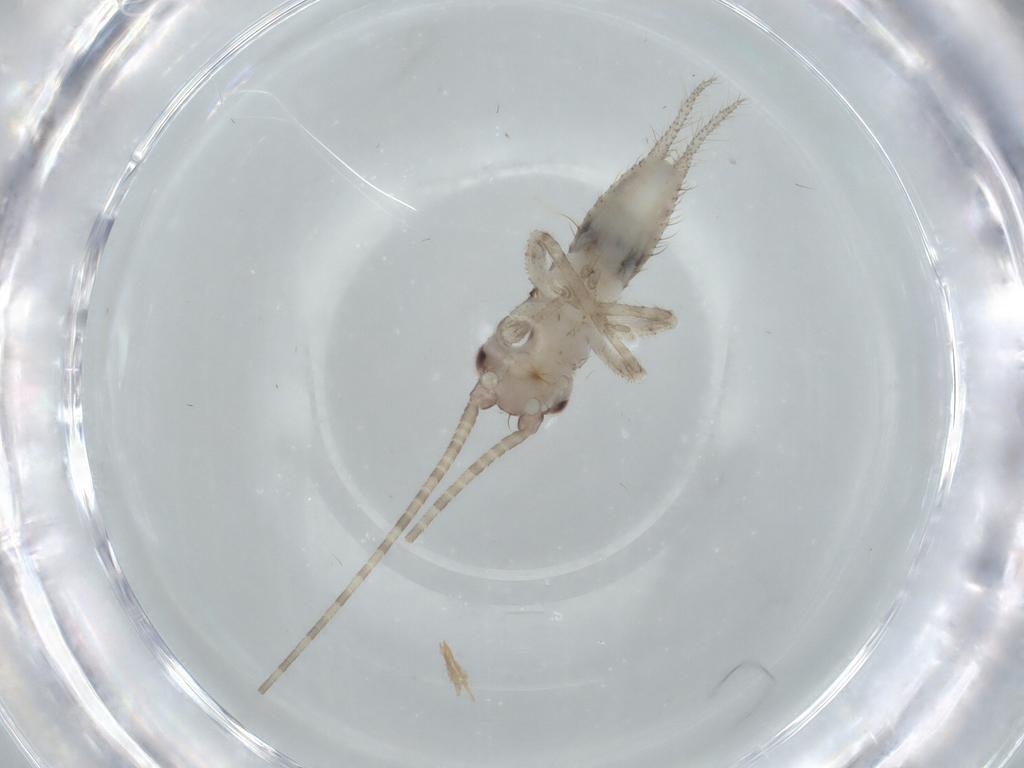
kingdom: Animalia
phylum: Arthropoda
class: Insecta
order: Orthoptera
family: Gryllidae
